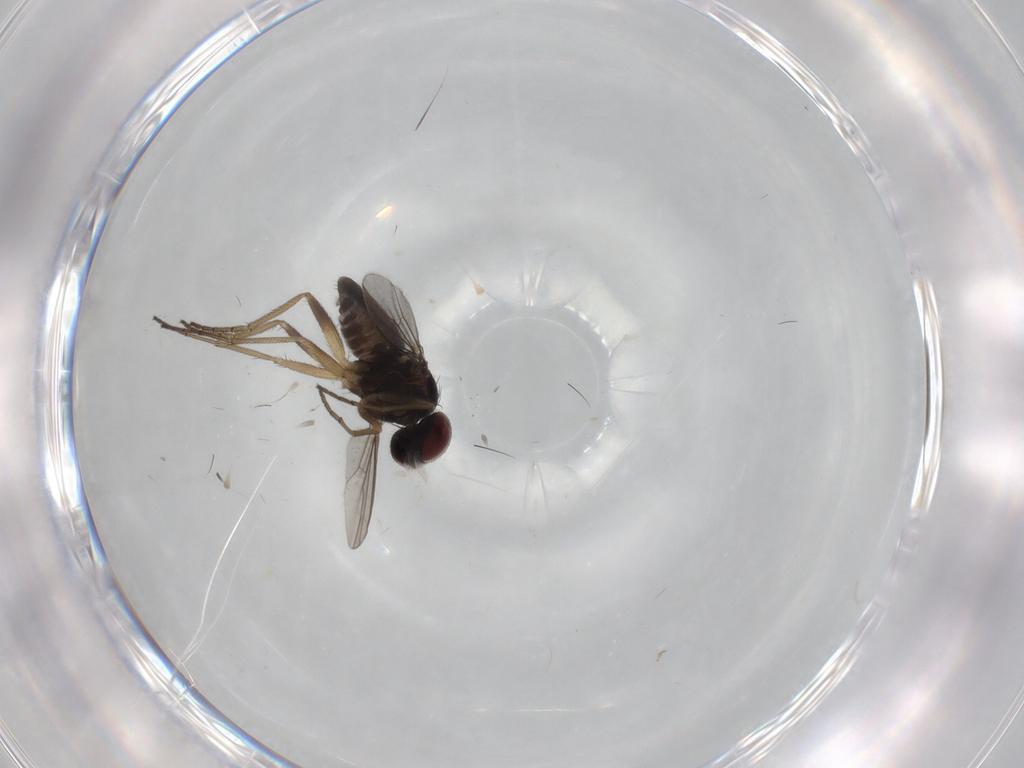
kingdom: Animalia
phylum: Arthropoda
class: Insecta
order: Diptera
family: Dolichopodidae
